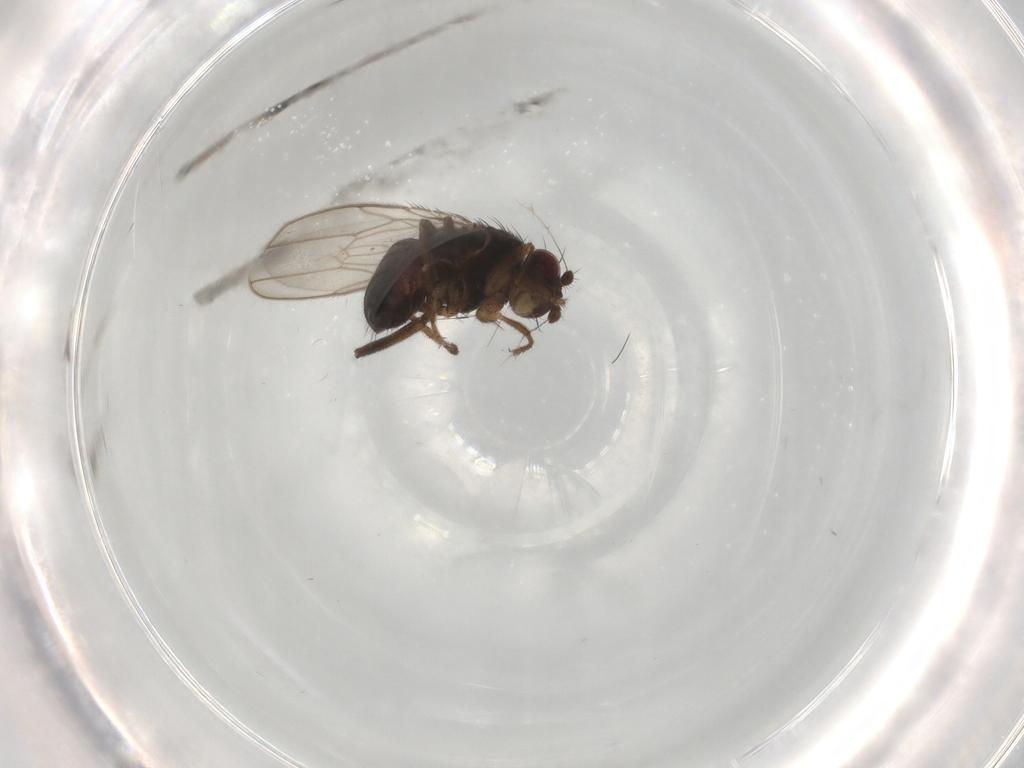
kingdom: Animalia
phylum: Arthropoda
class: Insecta
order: Diptera
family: Sphaeroceridae
